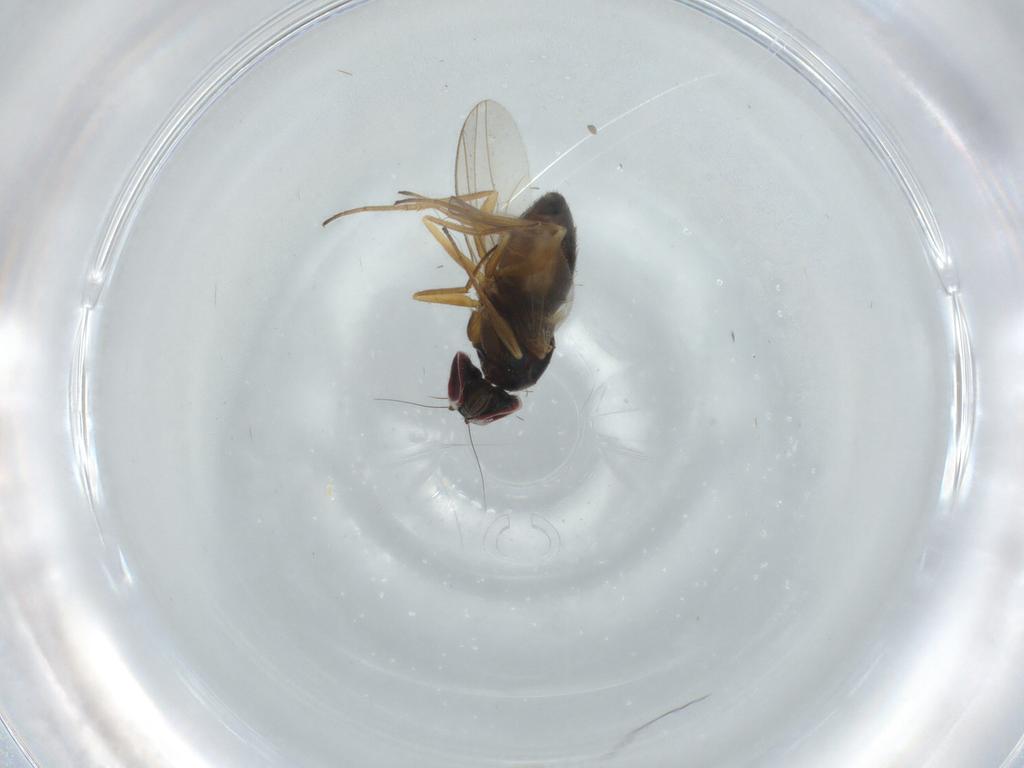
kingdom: Animalia
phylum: Arthropoda
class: Insecta
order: Diptera
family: Dolichopodidae
